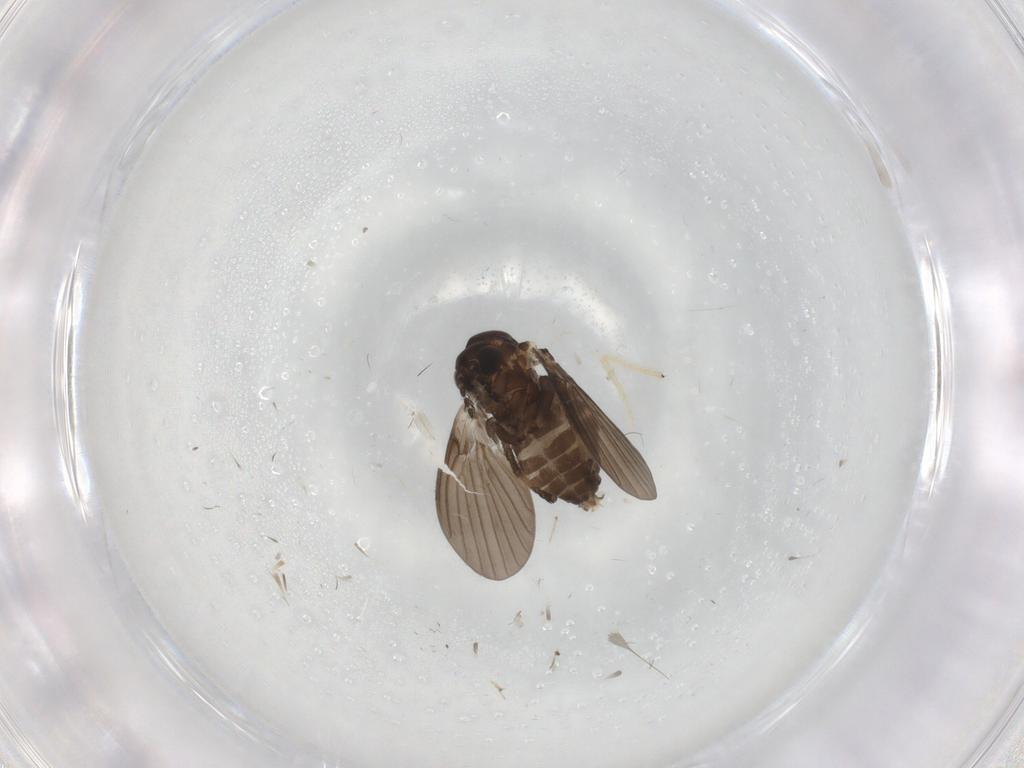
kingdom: Animalia
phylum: Arthropoda
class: Insecta
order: Diptera
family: Psychodidae
